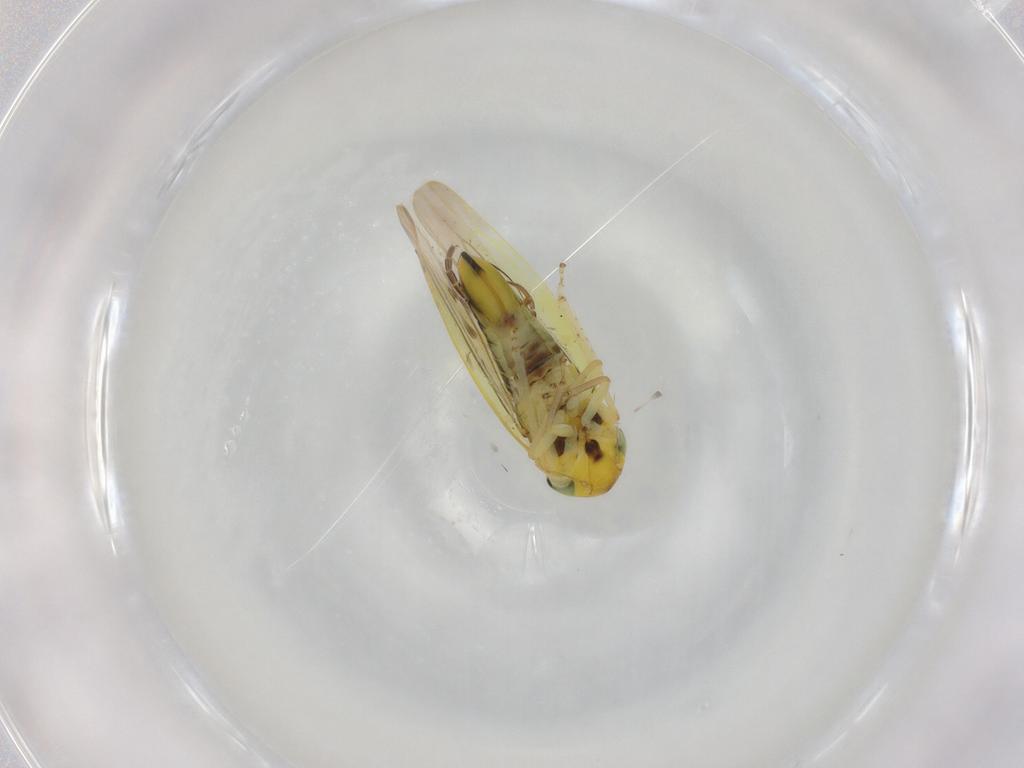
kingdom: Animalia
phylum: Arthropoda
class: Insecta
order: Hemiptera
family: Cicadellidae
